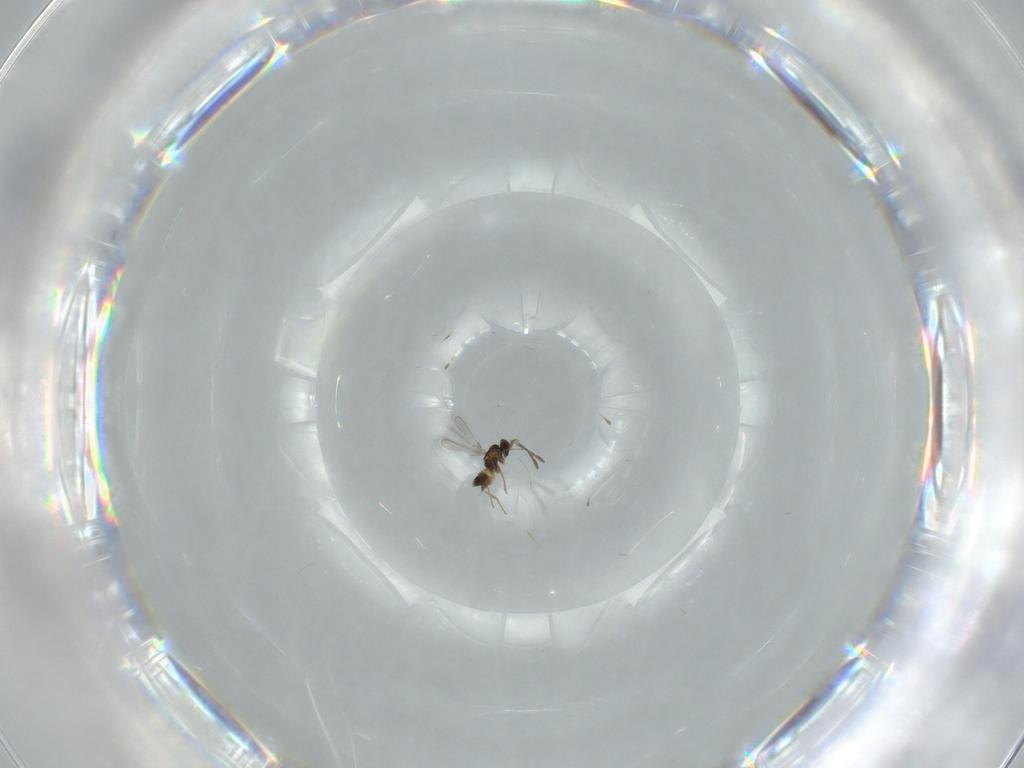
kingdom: Animalia
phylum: Arthropoda
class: Insecta
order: Hymenoptera
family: Mymaridae
